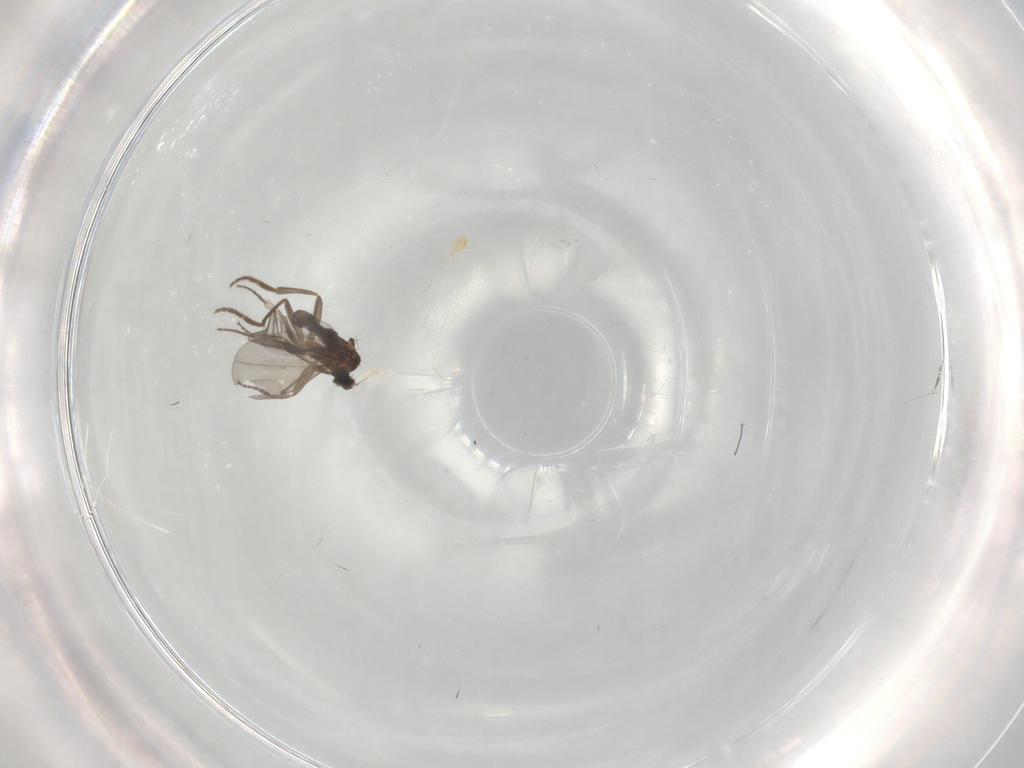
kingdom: Animalia
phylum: Arthropoda
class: Insecta
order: Diptera
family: Phoridae
